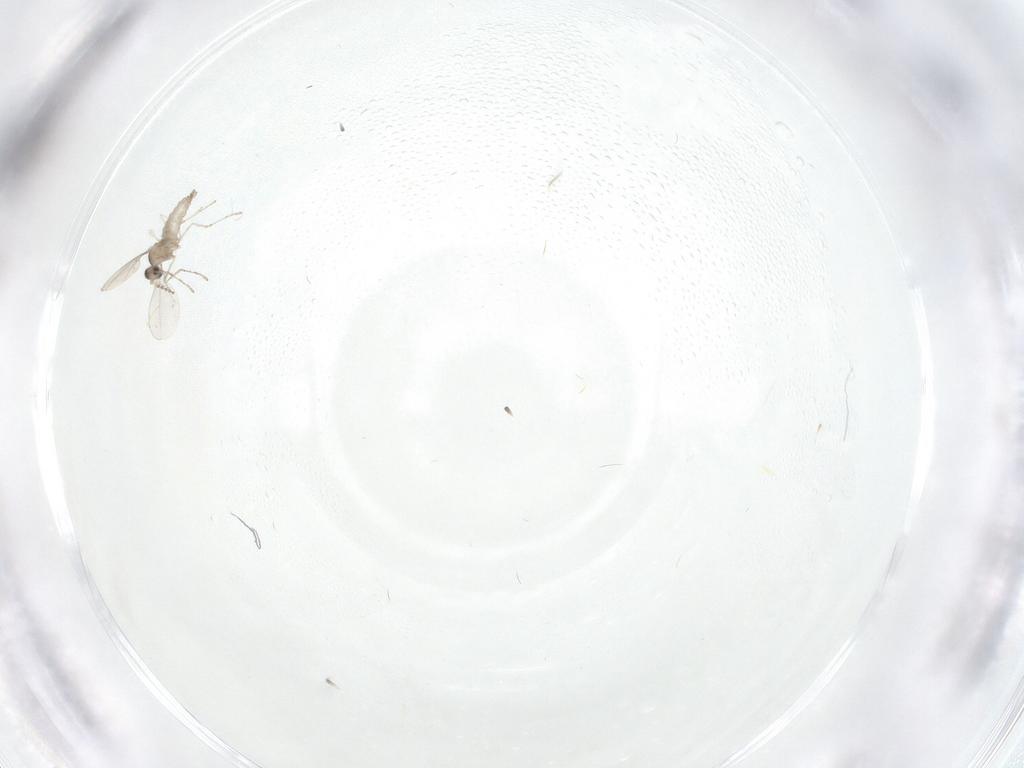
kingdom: Animalia
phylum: Arthropoda
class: Insecta
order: Diptera
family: Cecidomyiidae
